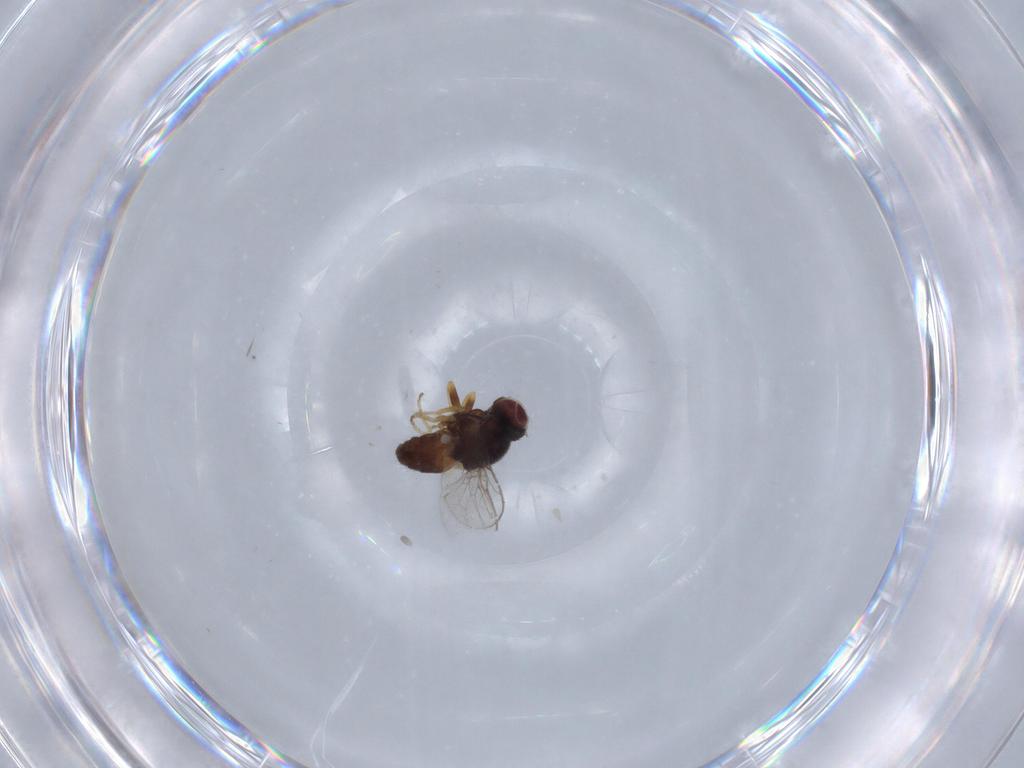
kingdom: Animalia
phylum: Arthropoda
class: Insecta
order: Diptera
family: Chloropidae
